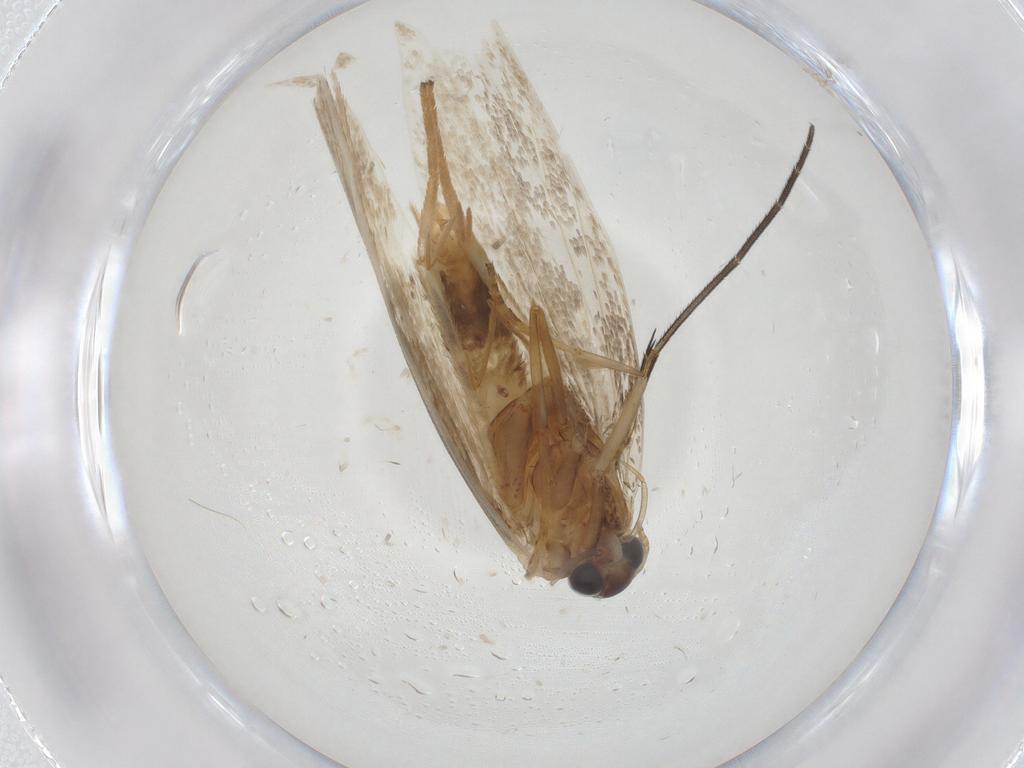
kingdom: Animalia
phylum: Arthropoda
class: Insecta
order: Lepidoptera
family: Erebidae
